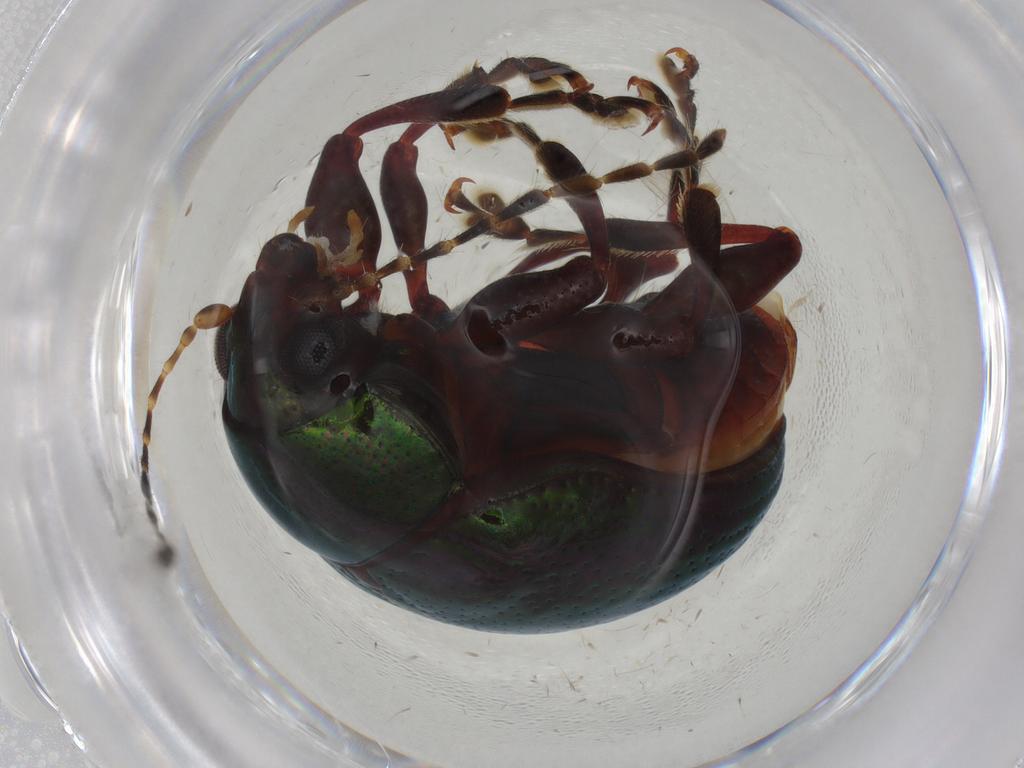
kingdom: Animalia
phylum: Arthropoda
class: Insecta
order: Coleoptera
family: Chrysomelidae
